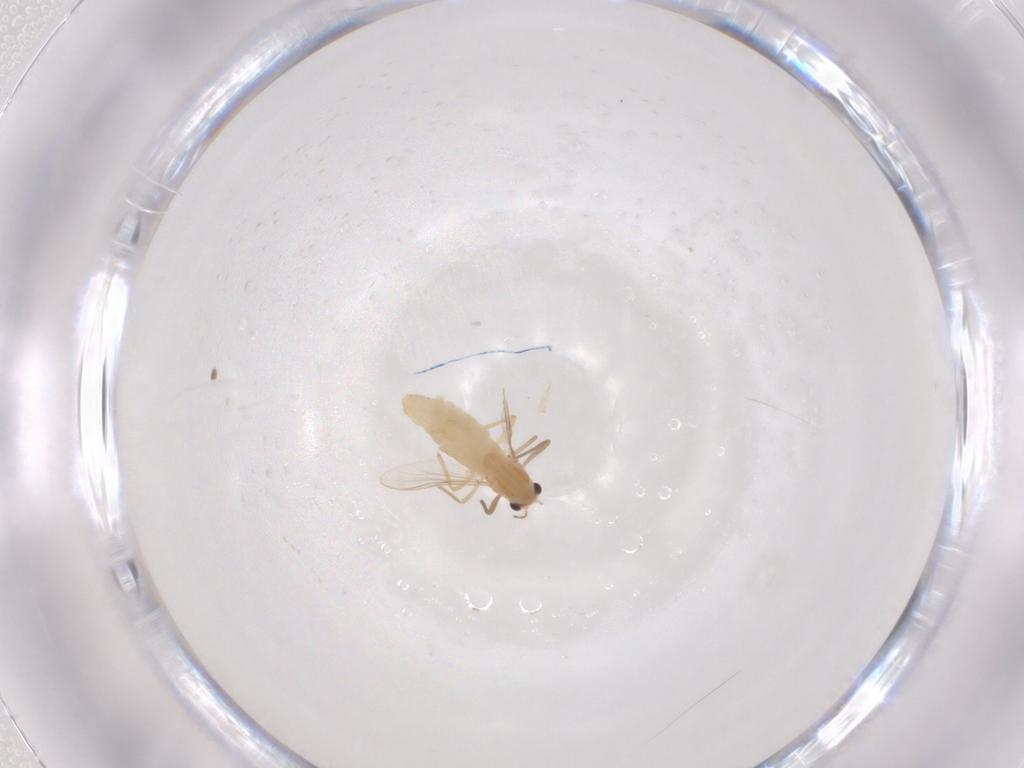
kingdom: Animalia
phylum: Arthropoda
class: Insecta
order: Diptera
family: Chironomidae
